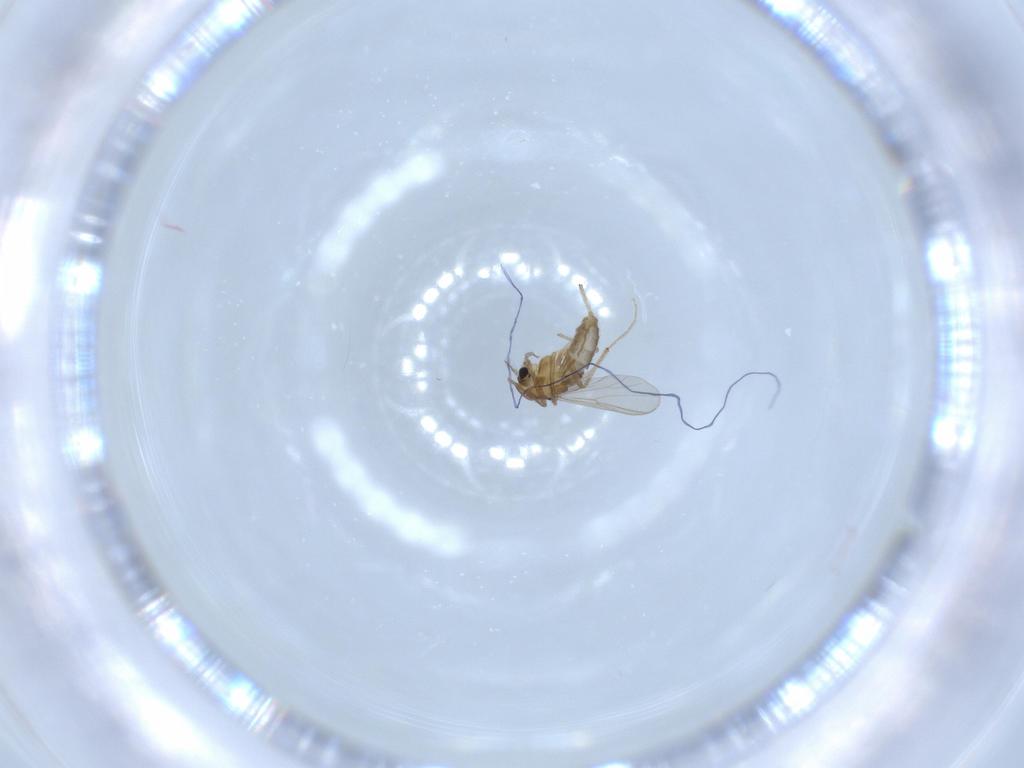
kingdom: Animalia
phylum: Arthropoda
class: Insecta
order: Diptera
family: Chironomidae
